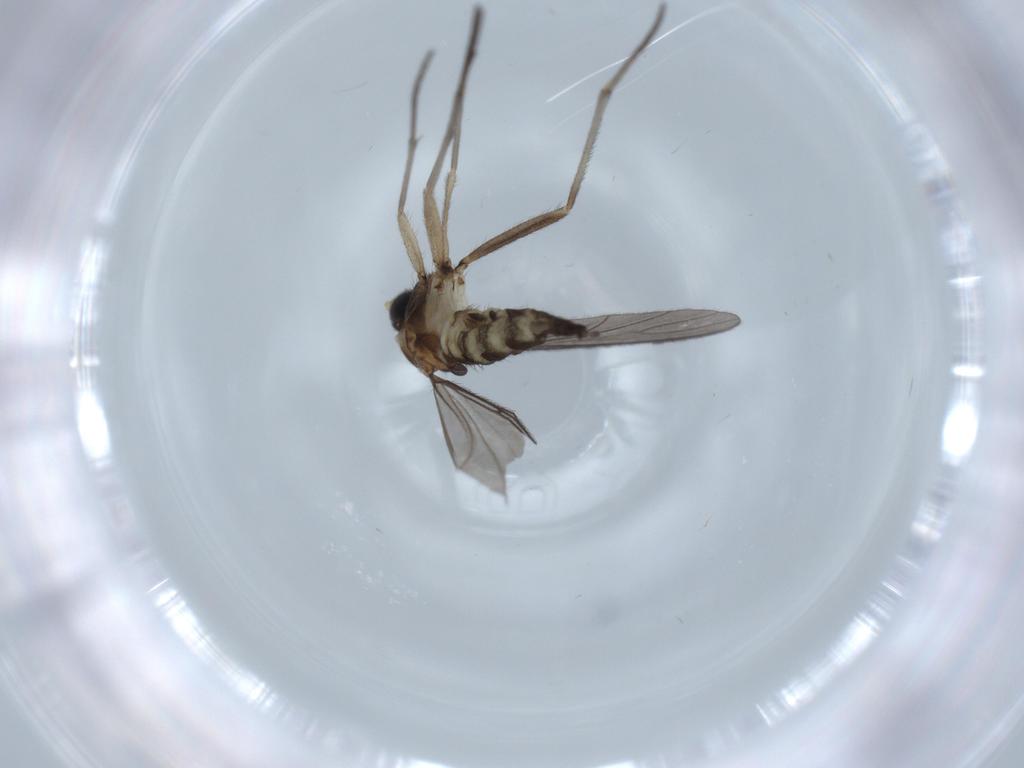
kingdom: Animalia
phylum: Arthropoda
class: Insecta
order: Diptera
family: Sciaridae
